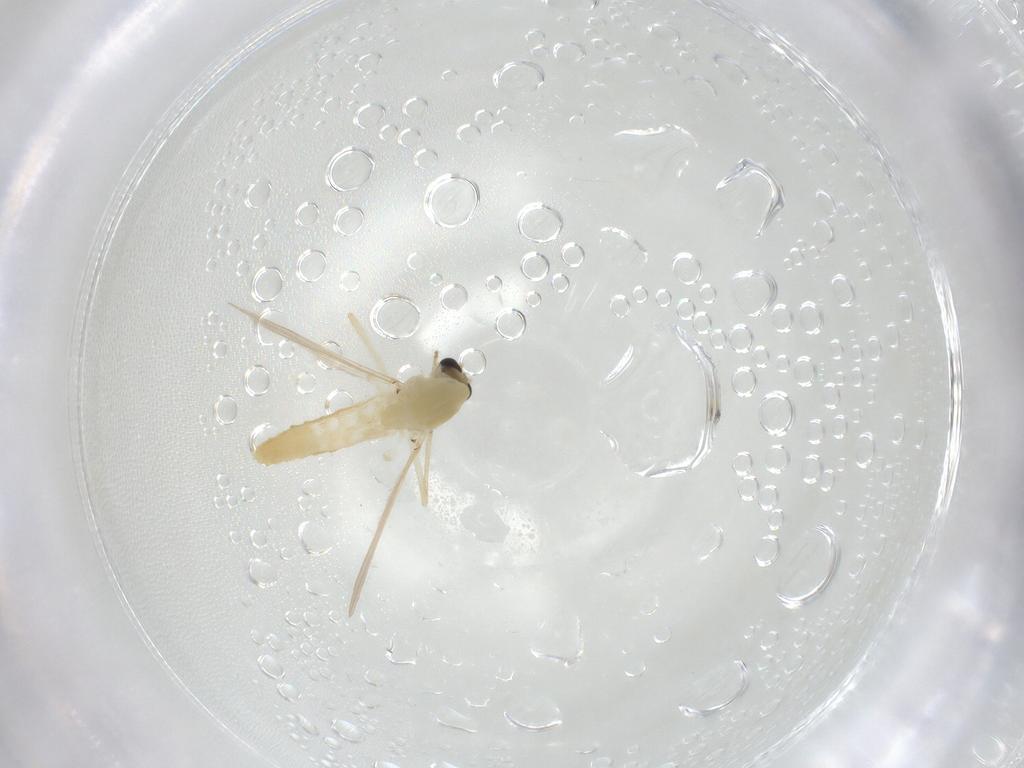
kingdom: Animalia
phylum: Arthropoda
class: Insecta
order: Diptera
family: Chironomidae
